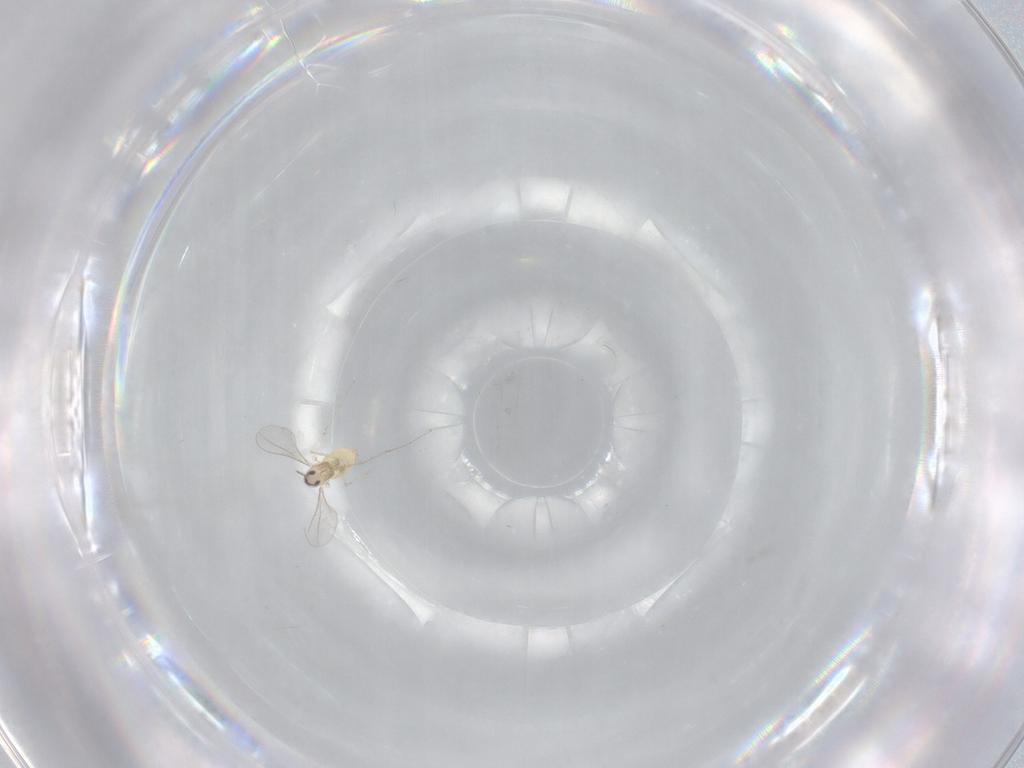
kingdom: Animalia
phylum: Arthropoda
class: Insecta
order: Diptera
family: Cecidomyiidae
